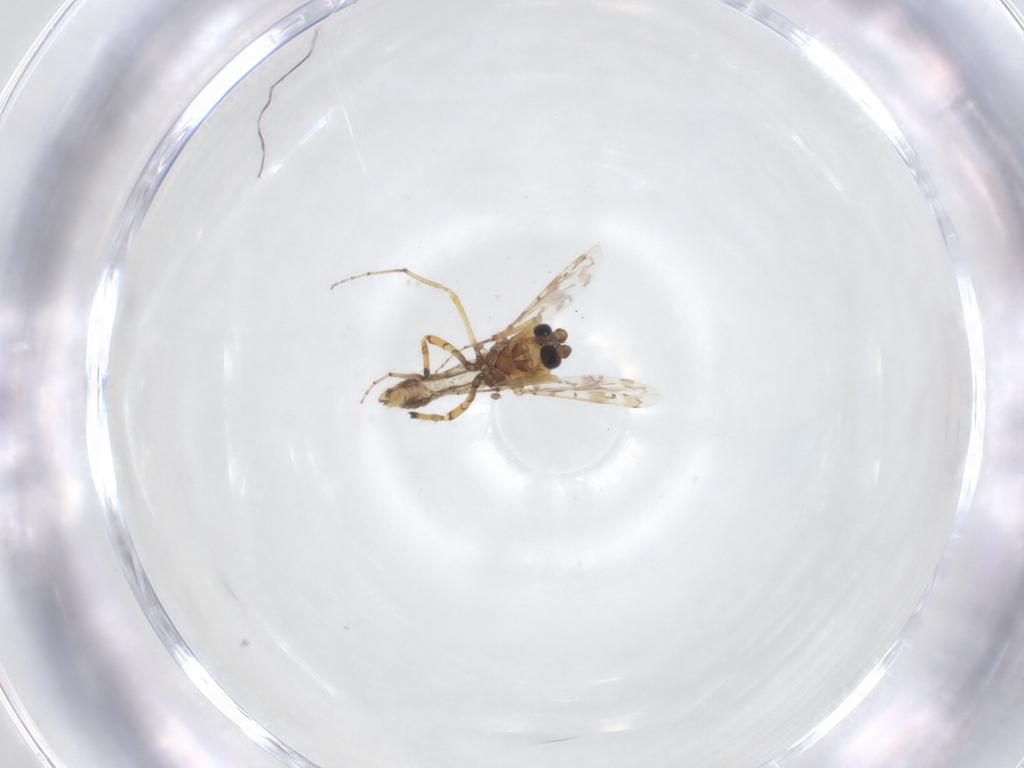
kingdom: Animalia
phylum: Arthropoda
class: Insecta
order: Diptera
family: Ceratopogonidae
